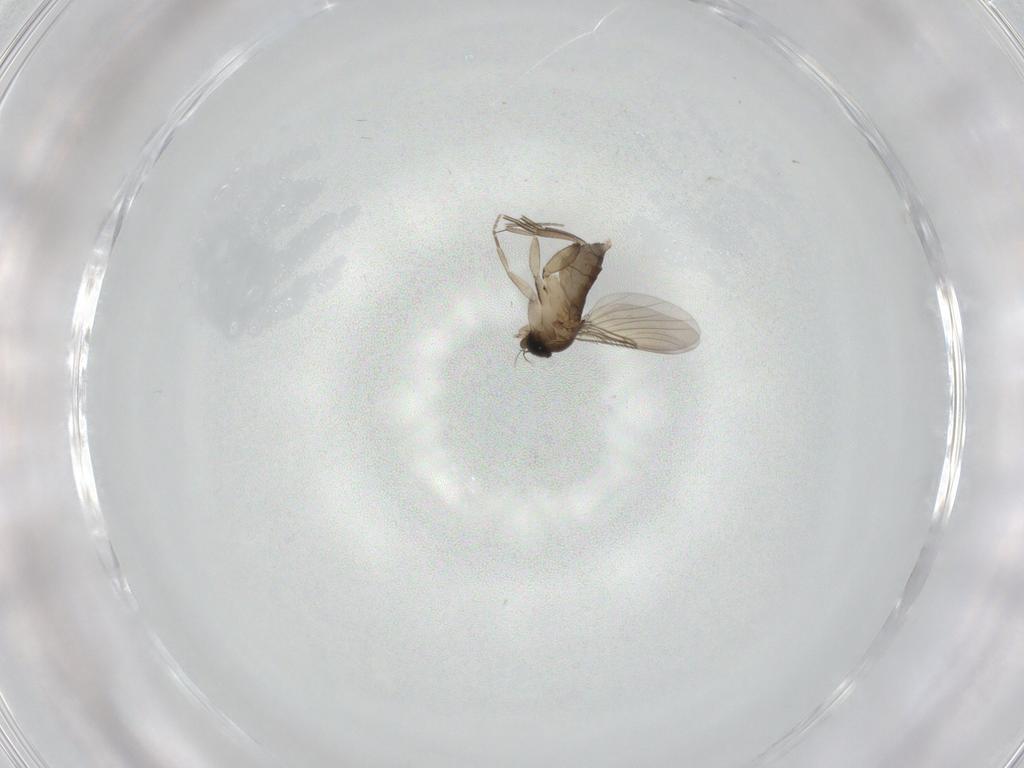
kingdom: Animalia
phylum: Arthropoda
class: Insecta
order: Diptera
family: Phoridae
